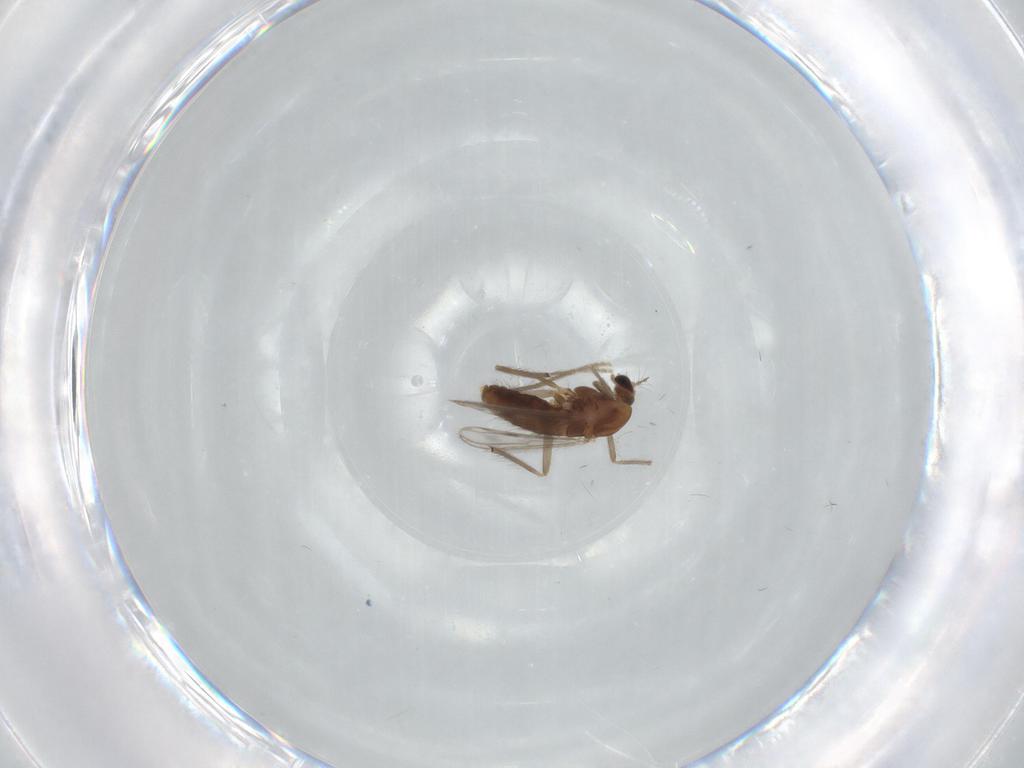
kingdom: Animalia
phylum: Arthropoda
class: Insecta
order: Diptera
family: Chironomidae
